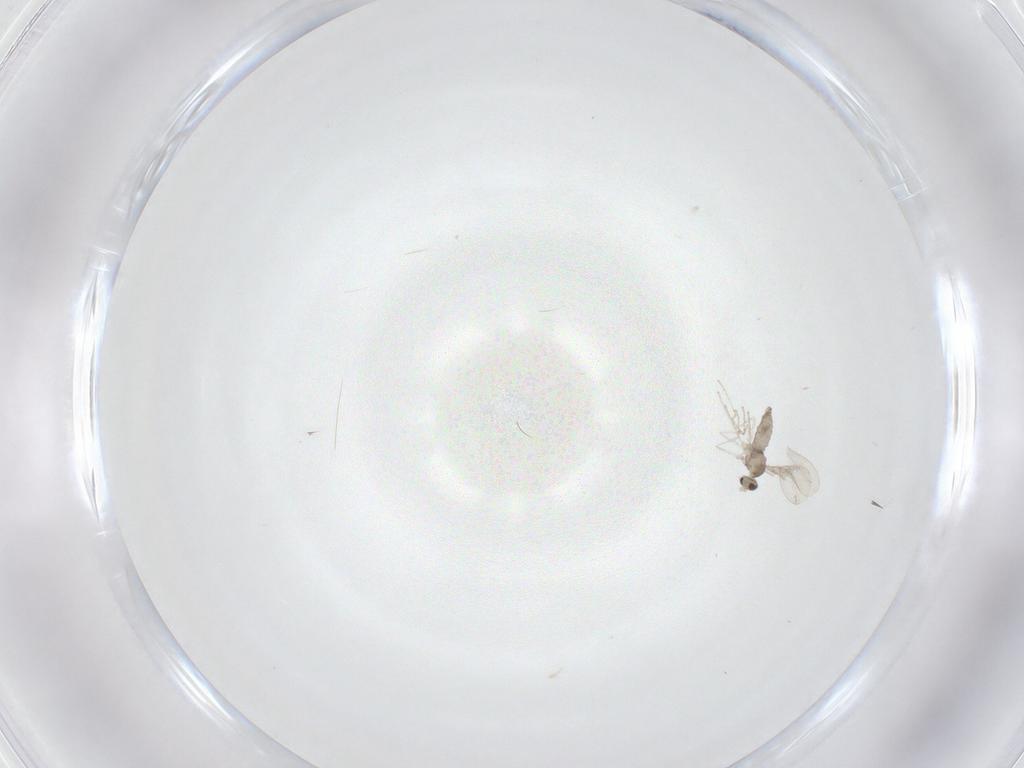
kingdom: Animalia
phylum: Arthropoda
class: Insecta
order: Diptera
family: Cecidomyiidae
